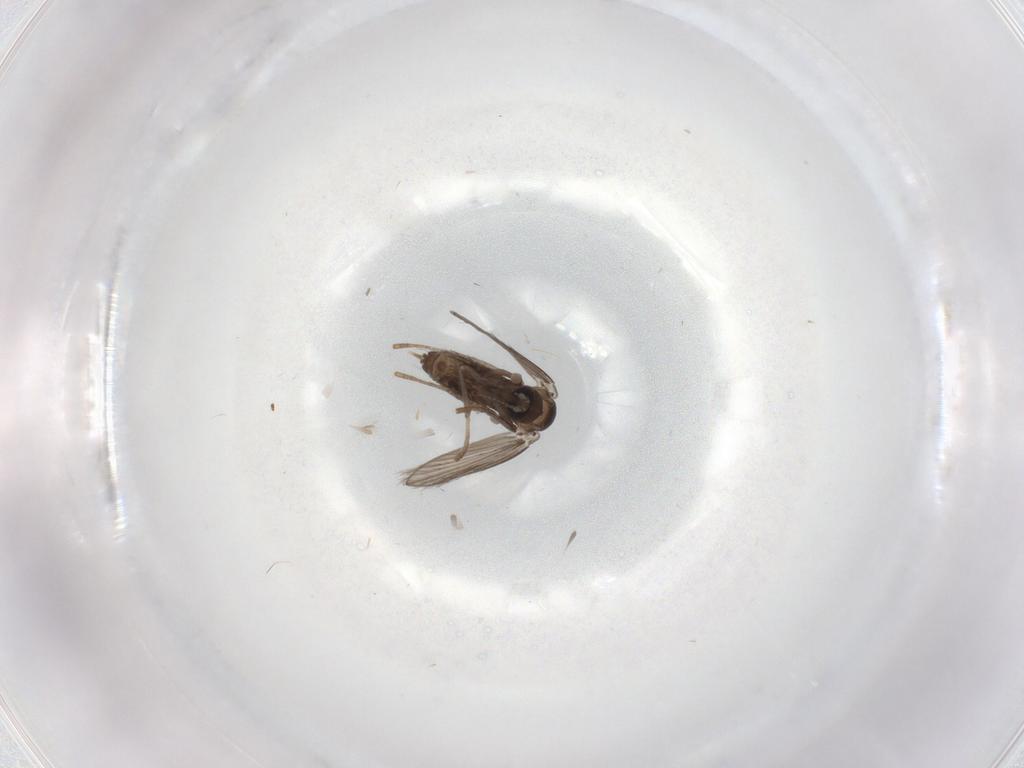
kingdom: Animalia
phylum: Arthropoda
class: Insecta
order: Diptera
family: Psychodidae
